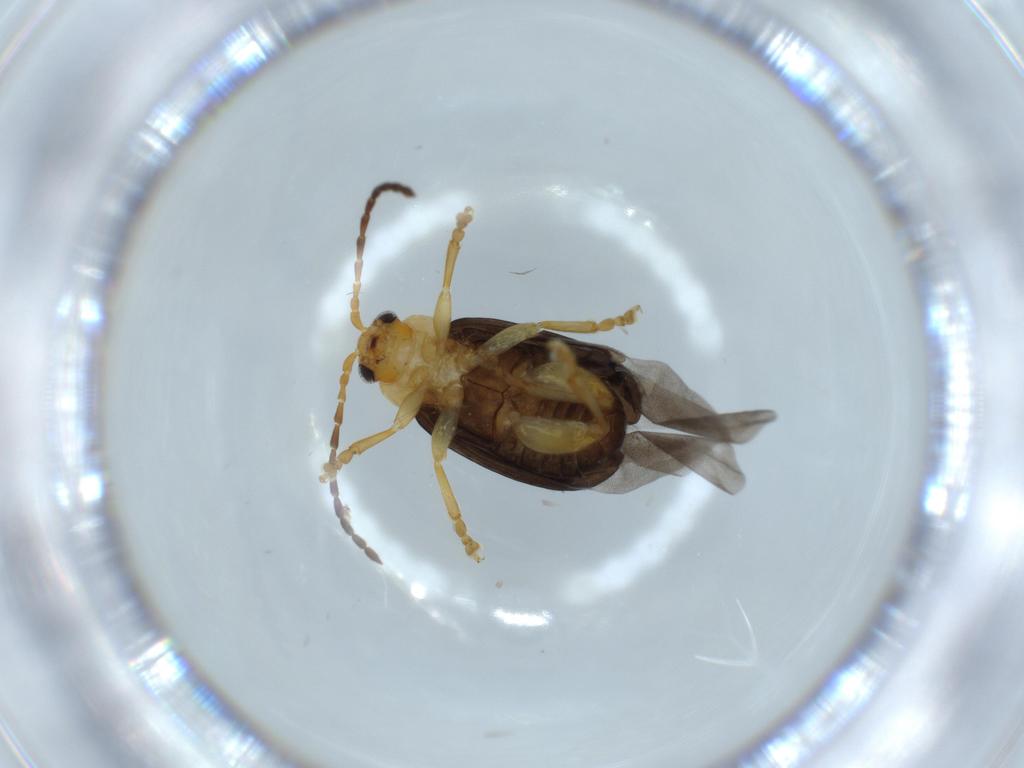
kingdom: Animalia
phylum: Arthropoda
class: Insecta
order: Coleoptera
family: Chrysomelidae
